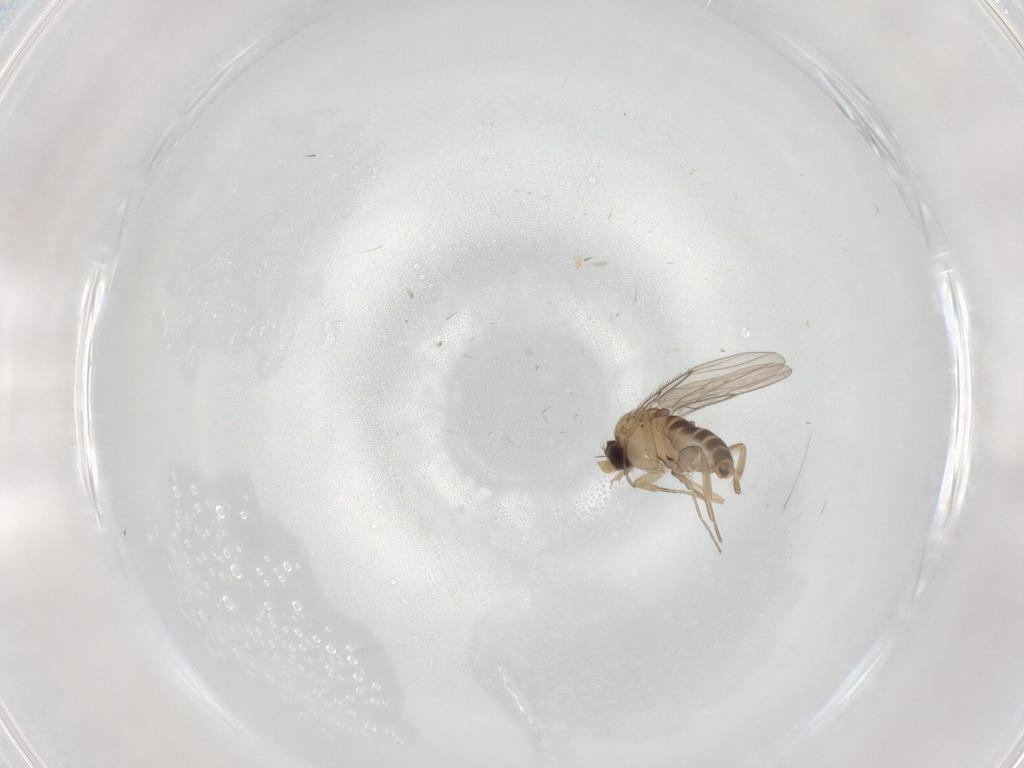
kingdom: Animalia
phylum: Arthropoda
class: Insecta
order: Diptera
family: Phoridae
